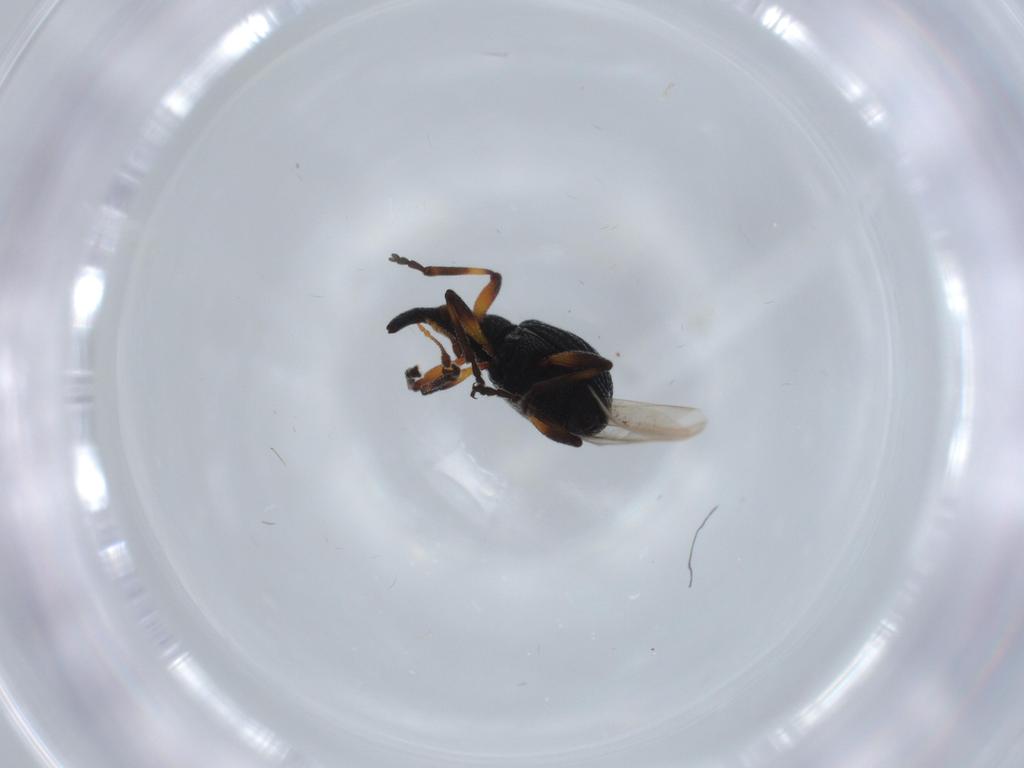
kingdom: Animalia
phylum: Arthropoda
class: Insecta
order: Coleoptera
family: Brentidae
